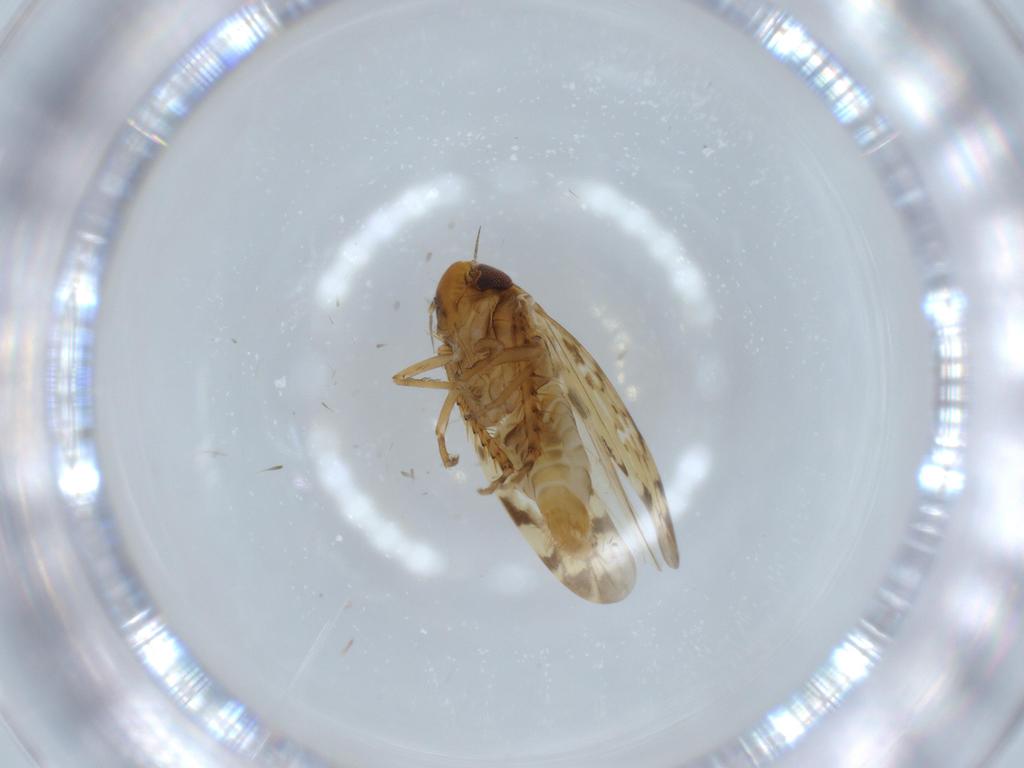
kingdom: Animalia
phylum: Arthropoda
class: Insecta
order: Hemiptera
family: Cicadellidae
